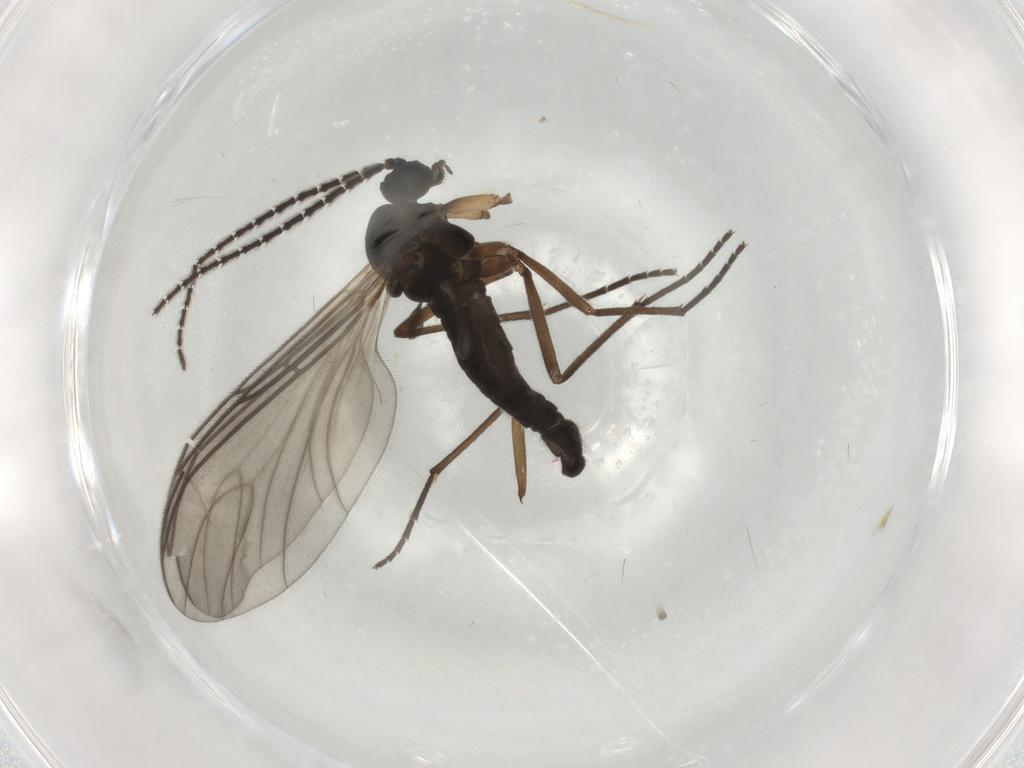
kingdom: Animalia
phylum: Arthropoda
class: Insecta
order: Diptera
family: Sciaridae
